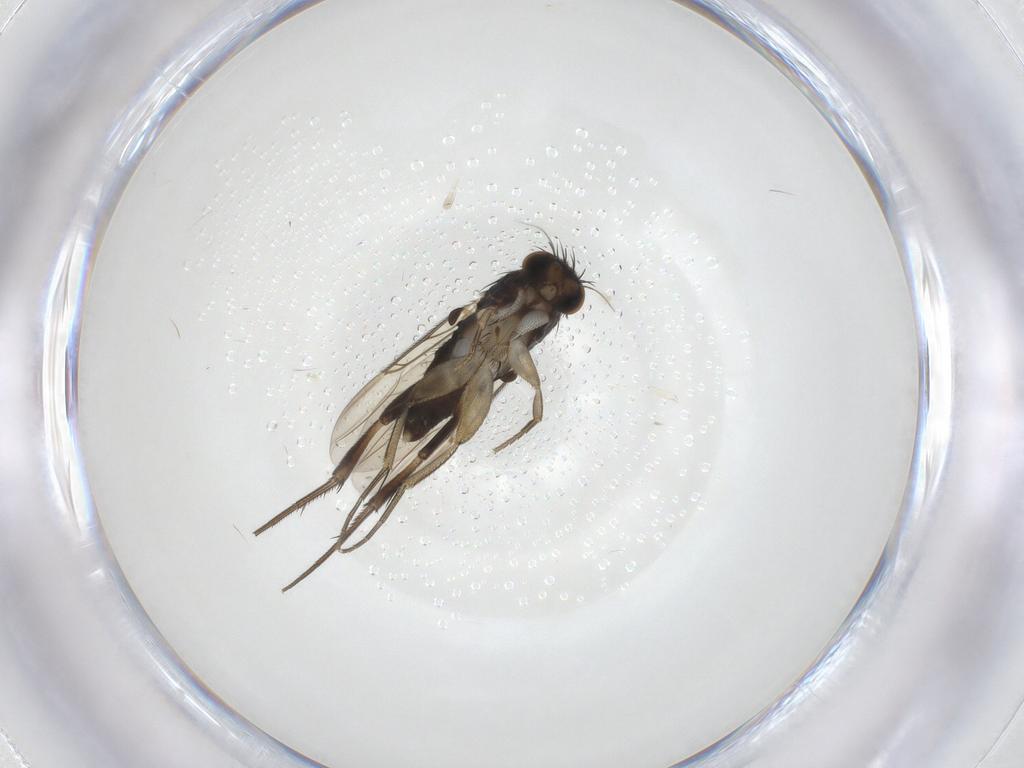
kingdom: Animalia
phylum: Arthropoda
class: Insecta
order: Diptera
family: Phoridae
